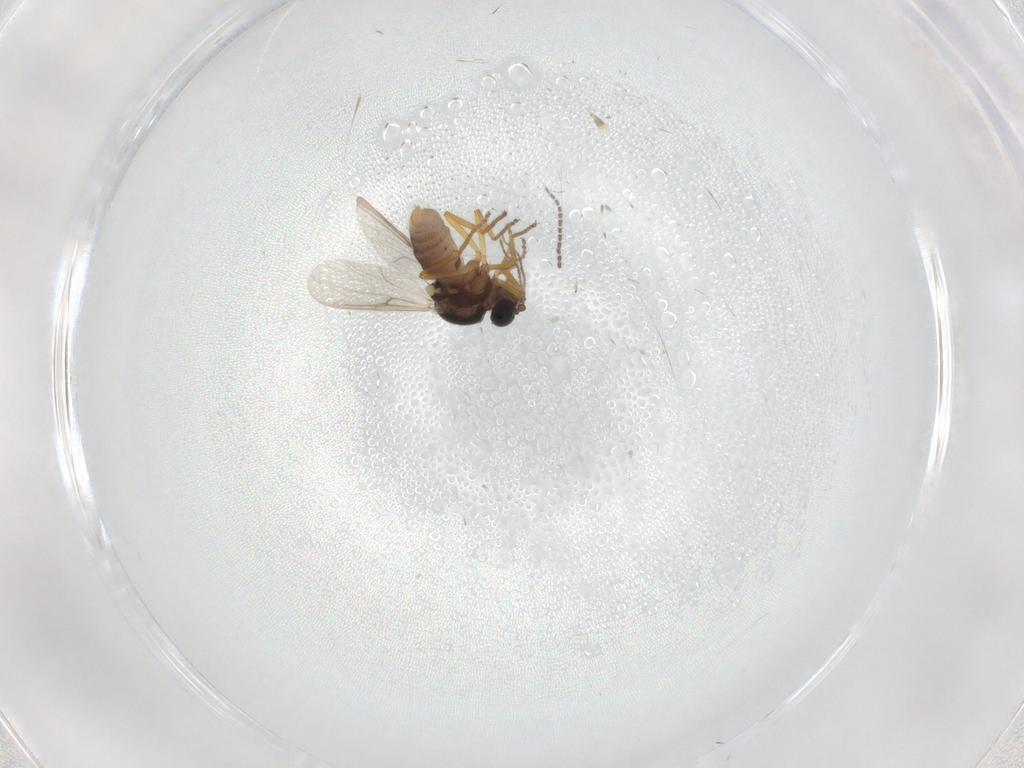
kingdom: Animalia
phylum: Arthropoda
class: Insecta
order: Diptera
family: Sciaridae
